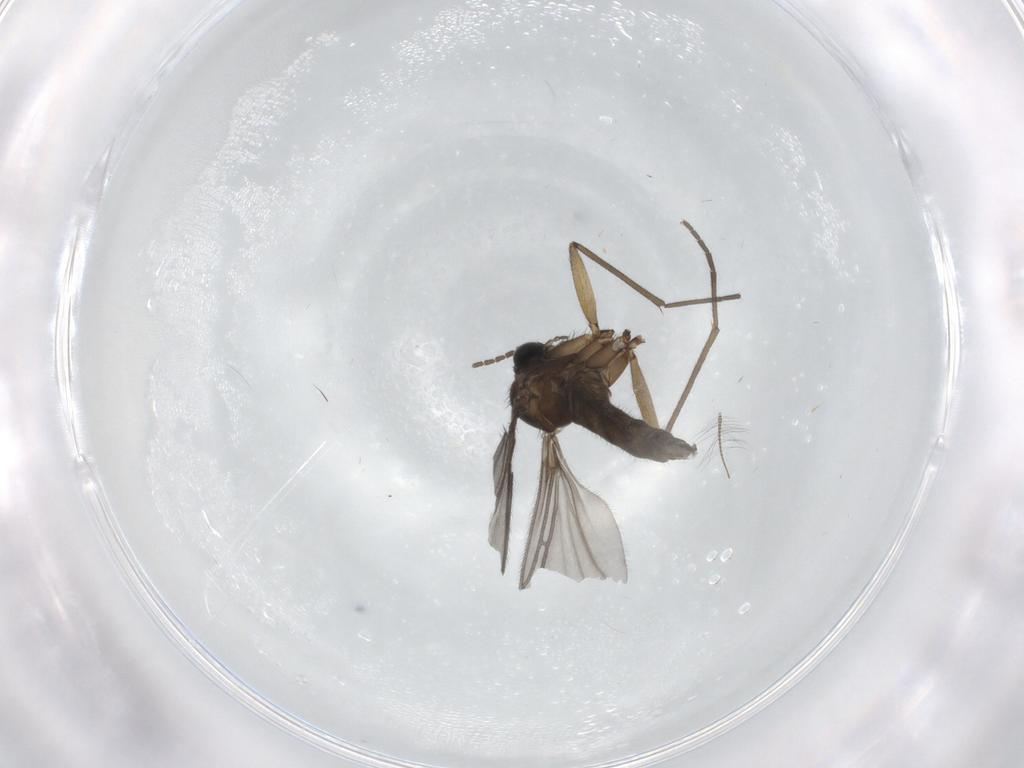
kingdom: Animalia
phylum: Arthropoda
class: Insecta
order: Diptera
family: Sciaridae
